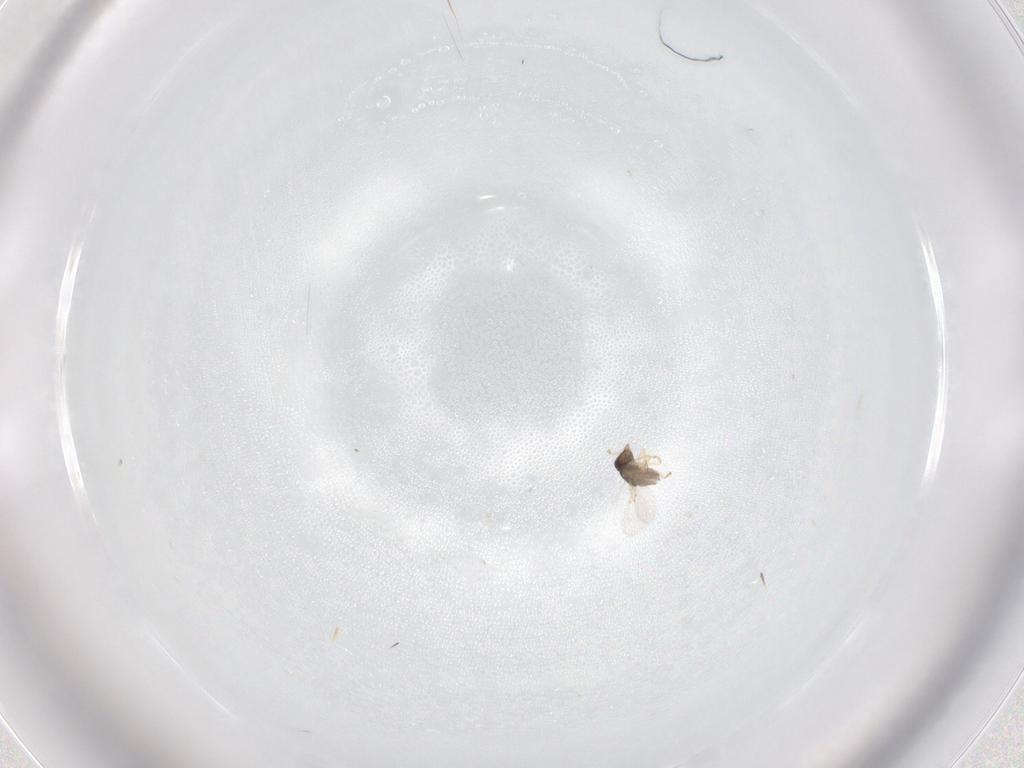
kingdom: Animalia
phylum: Arthropoda
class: Insecta
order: Hymenoptera
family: Encyrtidae
